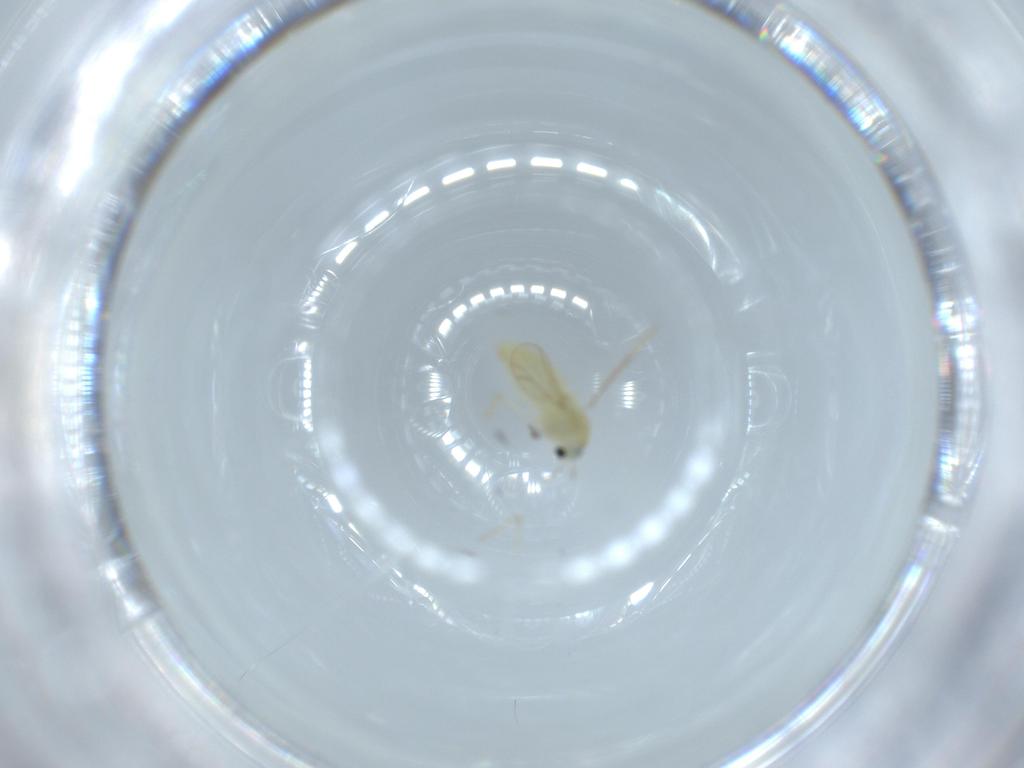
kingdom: Animalia
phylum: Arthropoda
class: Insecta
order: Diptera
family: Chironomidae
